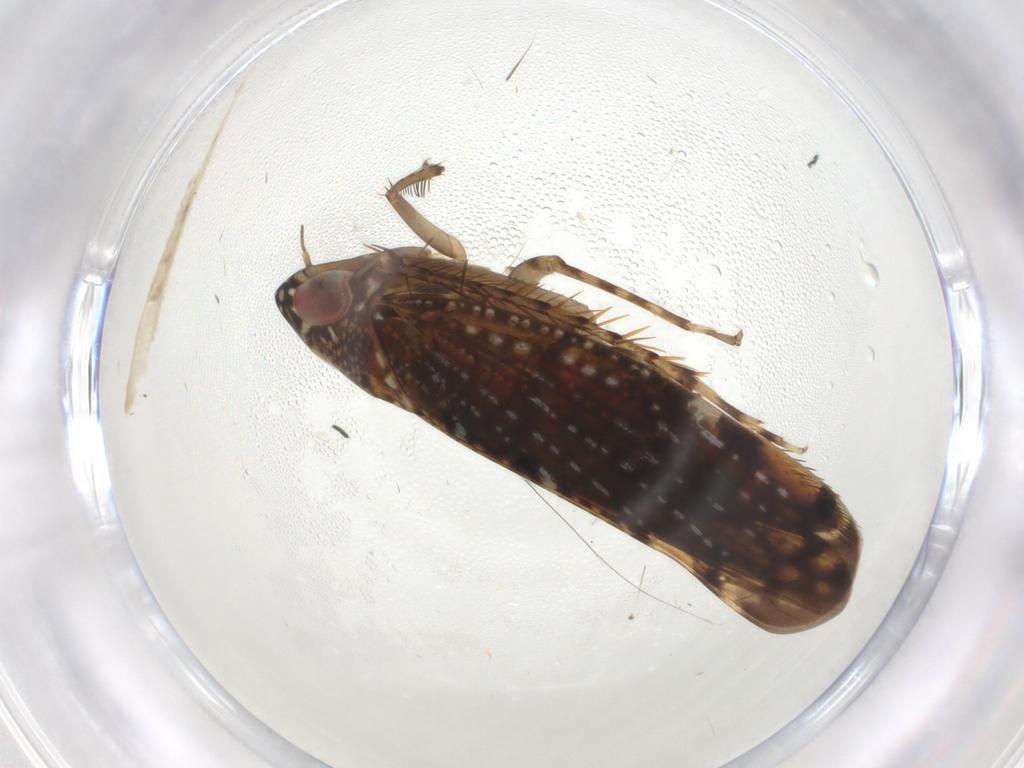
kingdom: Animalia
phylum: Arthropoda
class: Insecta
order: Hemiptera
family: Cicadellidae
